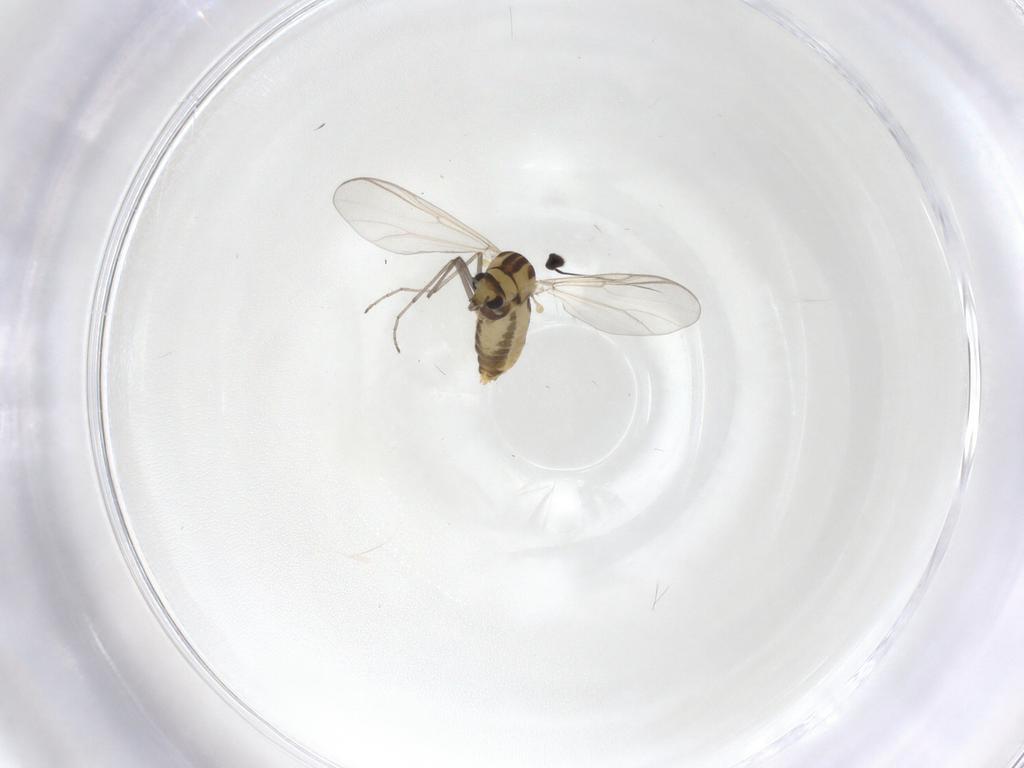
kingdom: Animalia
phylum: Arthropoda
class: Insecta
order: Diptera
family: Chironomidae
